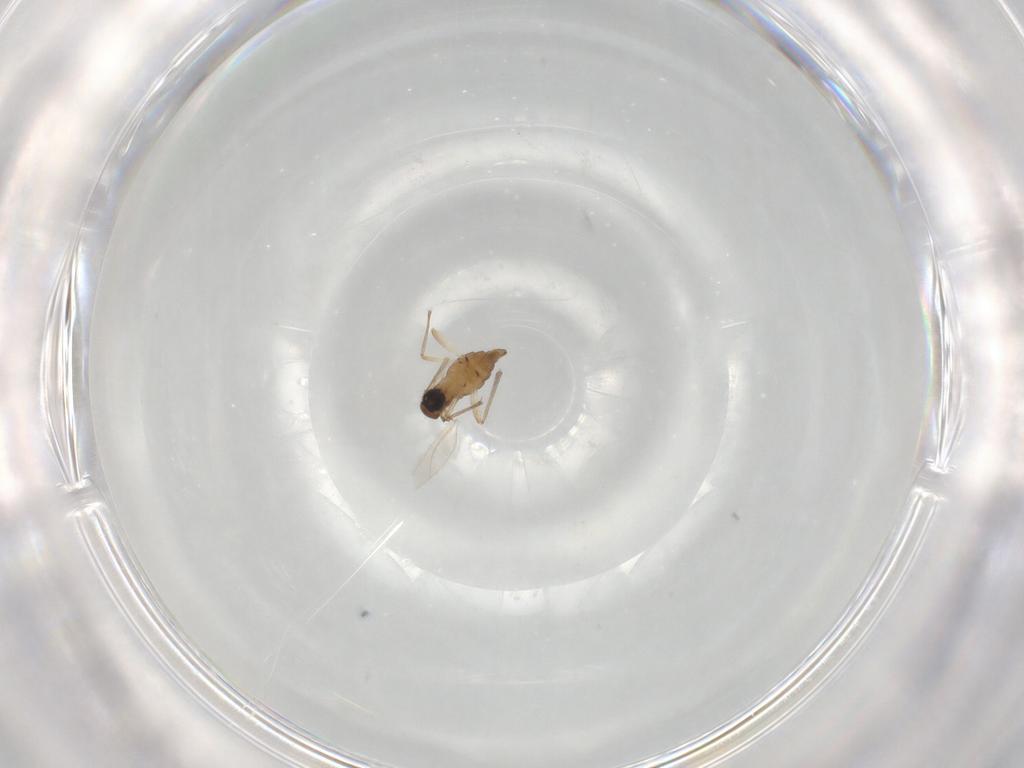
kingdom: Animalia
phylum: Arthropoda
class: Insecta
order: Diptera
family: Sciaridae
